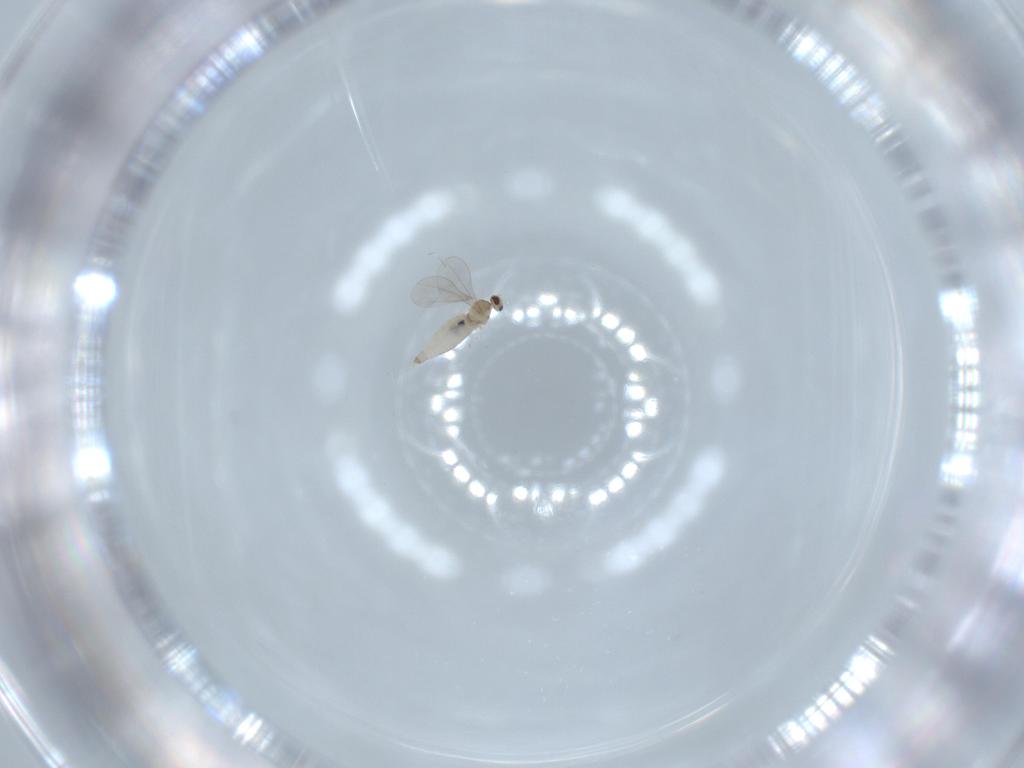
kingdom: Animalia
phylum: Arthropoda
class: Insecta
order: Diptera
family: Cecidomyiidae
